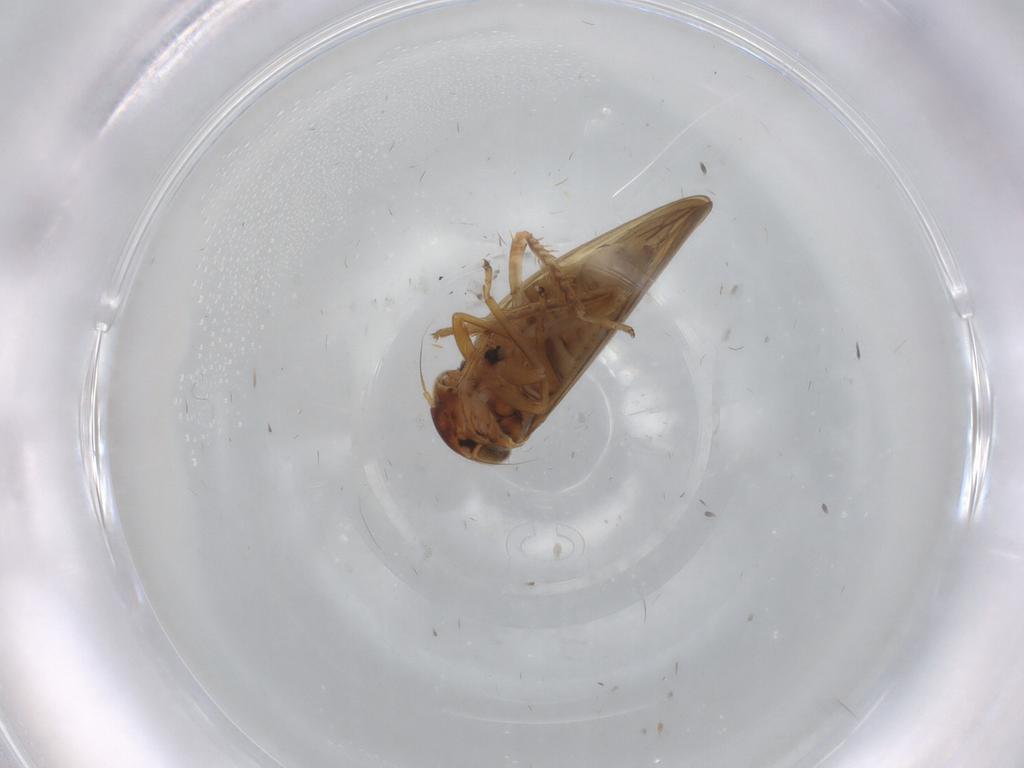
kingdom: Animalia
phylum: Arthropoda
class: Insecta
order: Hemiptera
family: Cicadellidae
